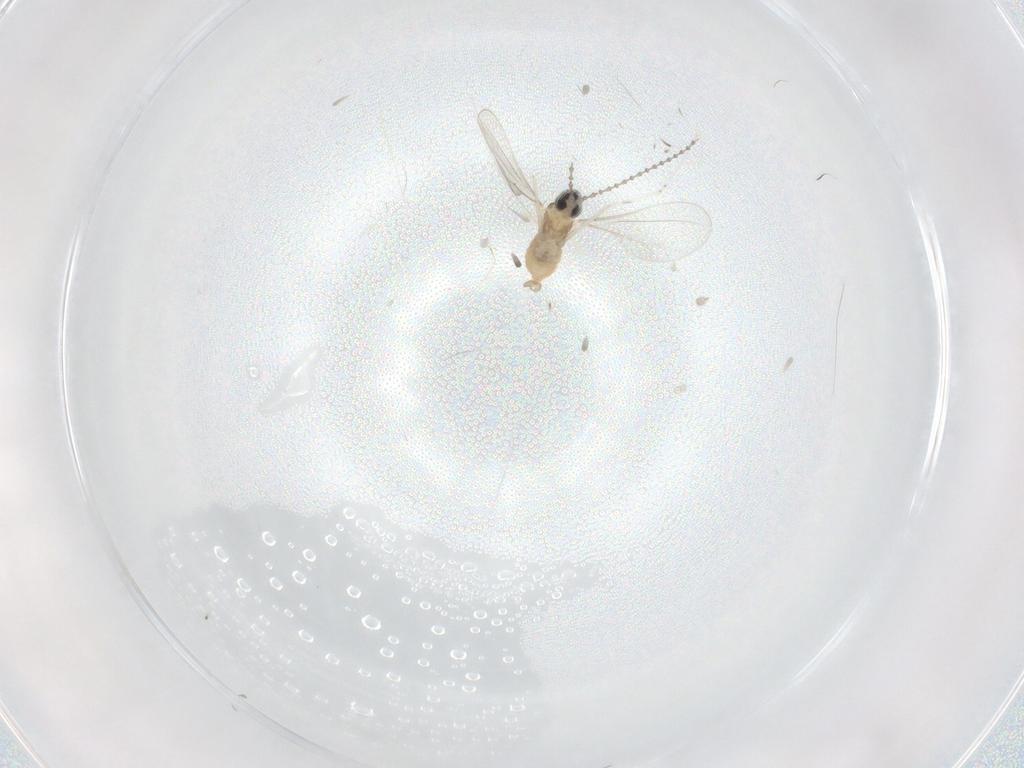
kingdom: Animalia
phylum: Arthropoda
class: Insecta
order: Diptera
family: Cecidomyiidae
